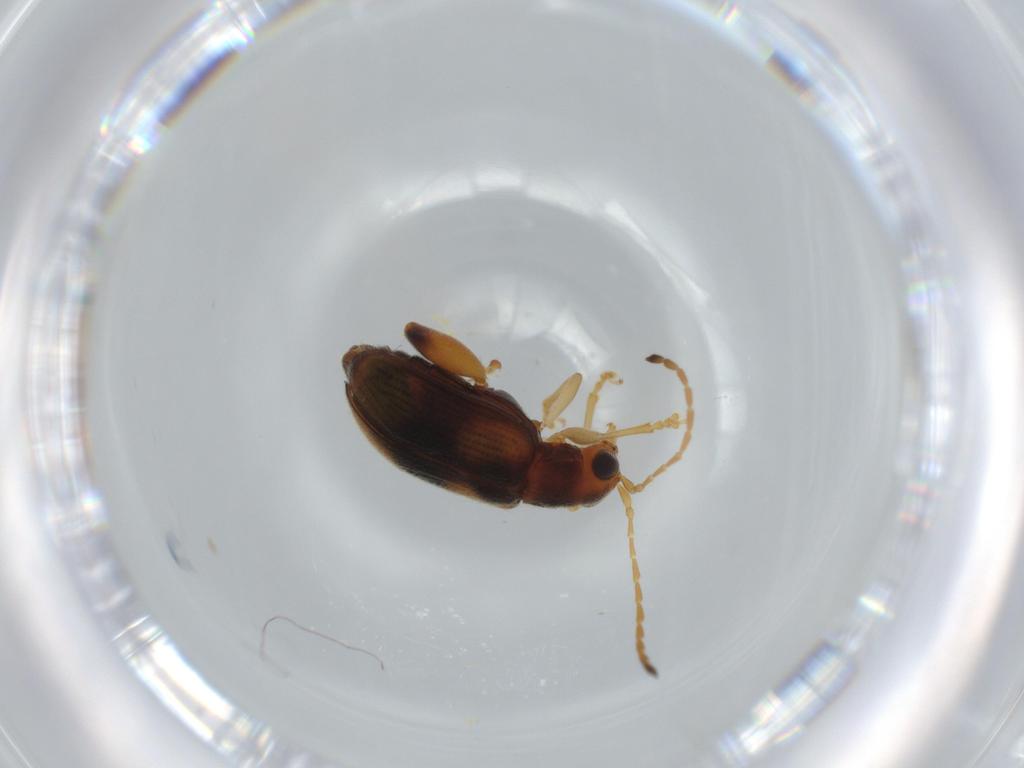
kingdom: Animalia
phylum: Arthropoda
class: Insecta
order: Coleoptera
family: Chrysomelidae
